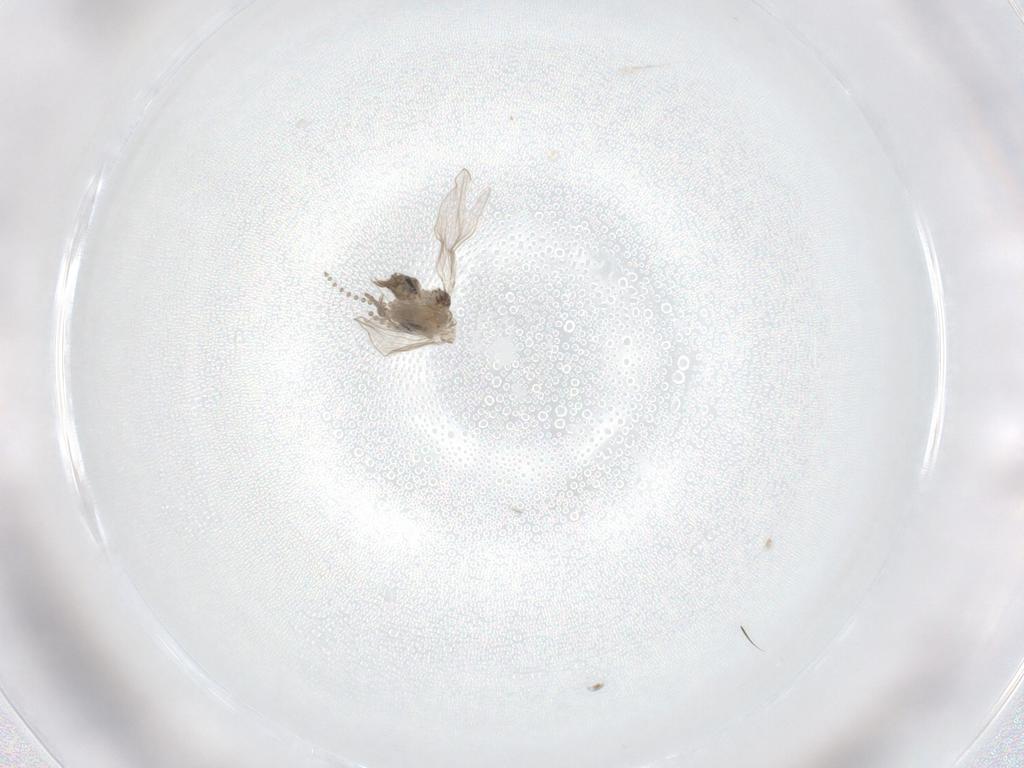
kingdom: Animalia
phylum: Arthropoda
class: Insecta
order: Diptera
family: Psychodidae
